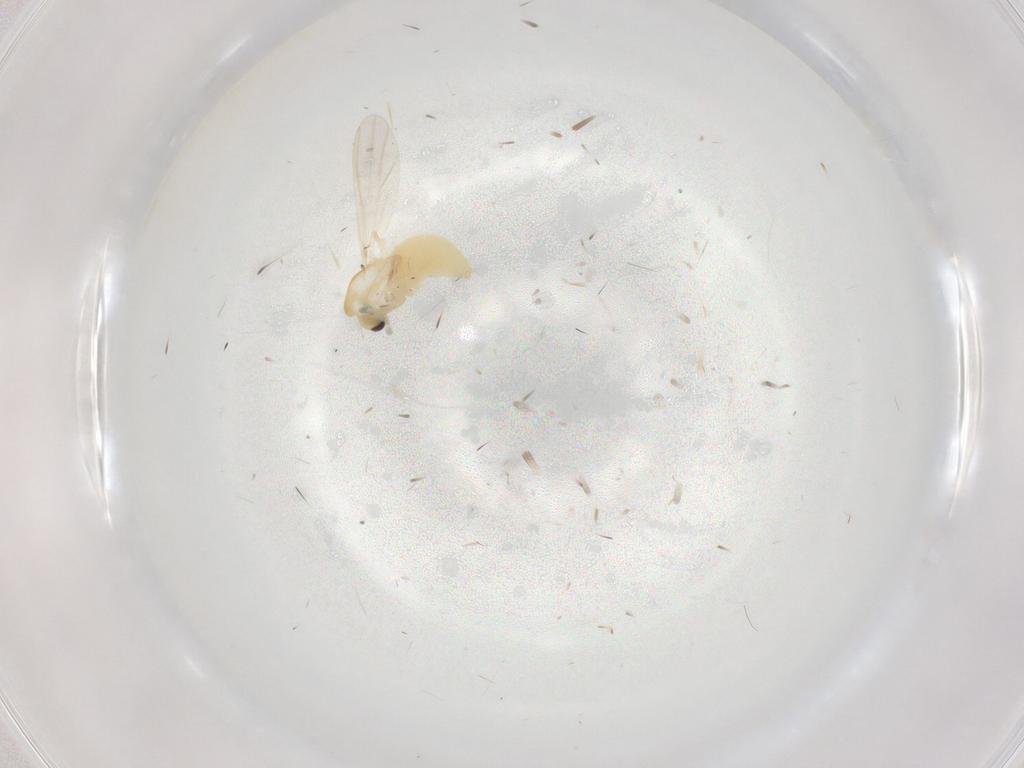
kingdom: Animalia
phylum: Arthropoda
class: Insecta
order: Diptera
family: Chironomidae
